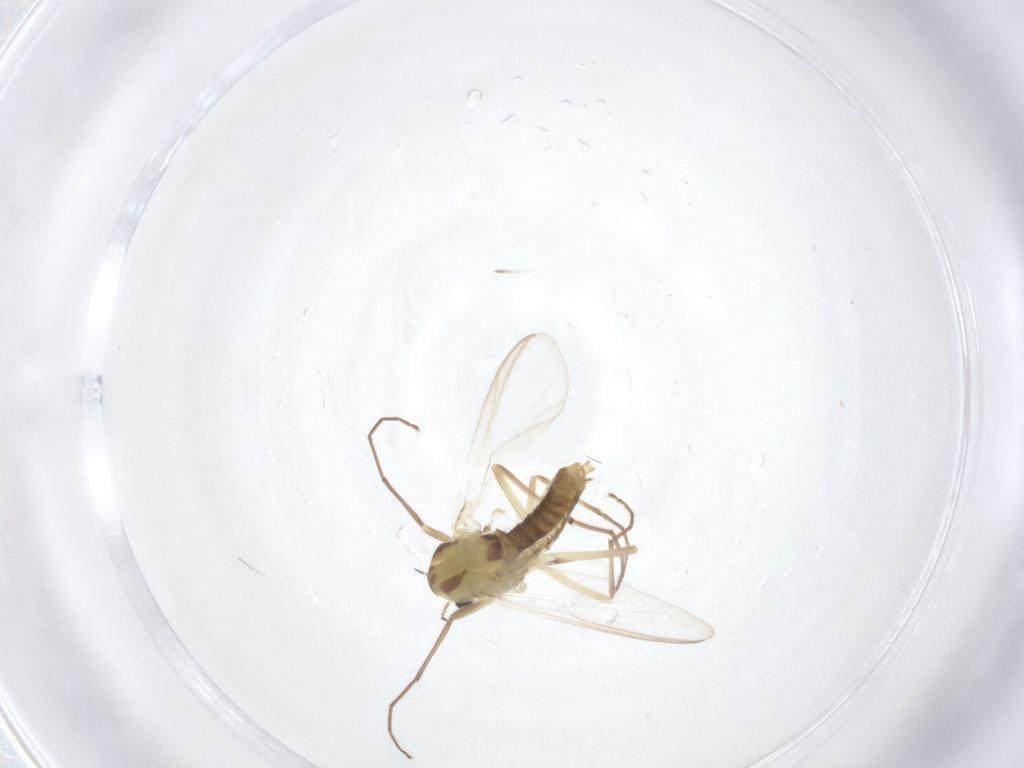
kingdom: Animalia
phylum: Arthropoda
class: Insecta
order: Diptera
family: Chironomidae
